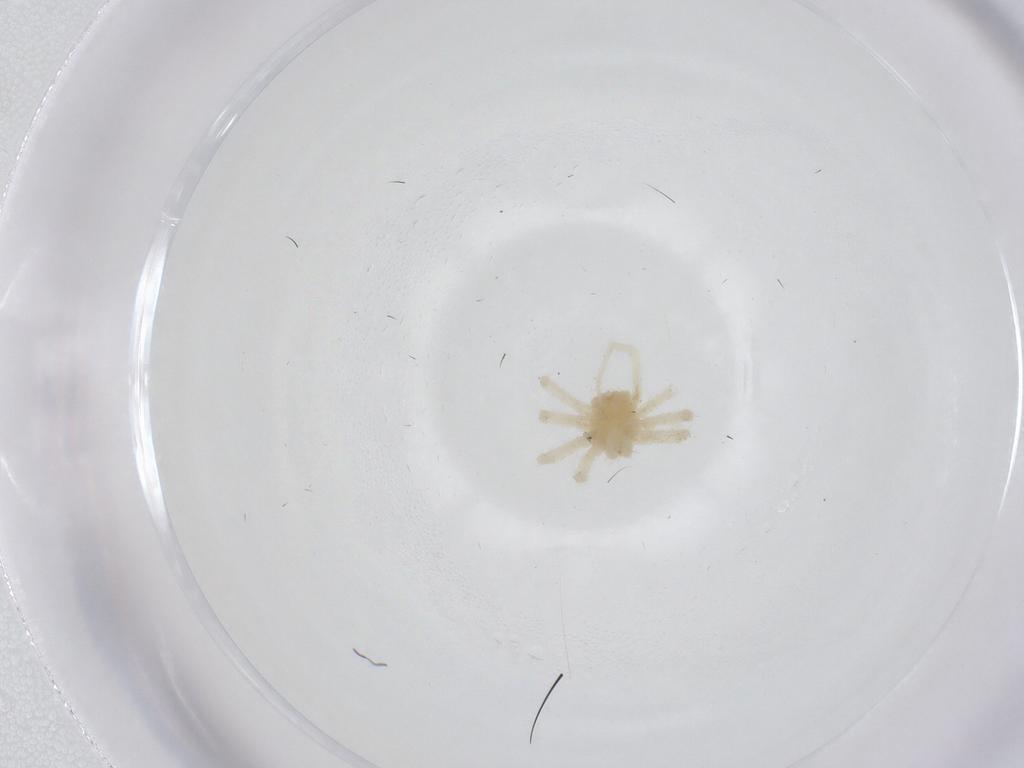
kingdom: Animalia
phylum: Arthropoda
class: Arachnida
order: Trombidiformes
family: Anystidae
